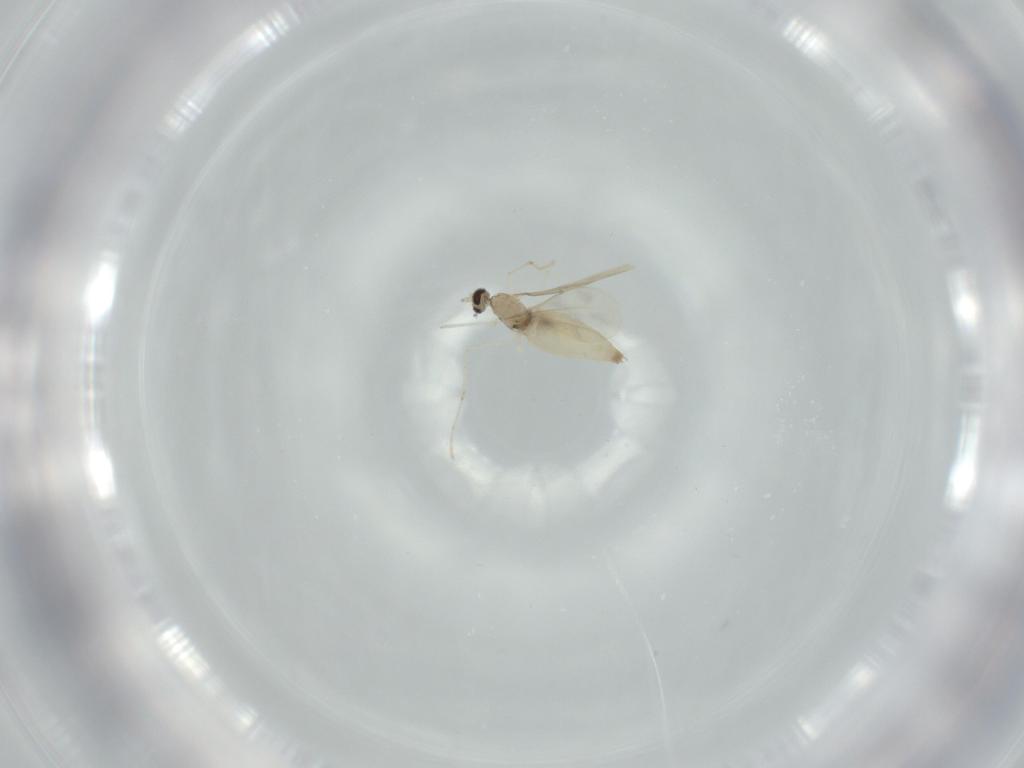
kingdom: Animalia
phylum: Arthropoda
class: Insecta
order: Diptera
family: Cecidomyiidae
